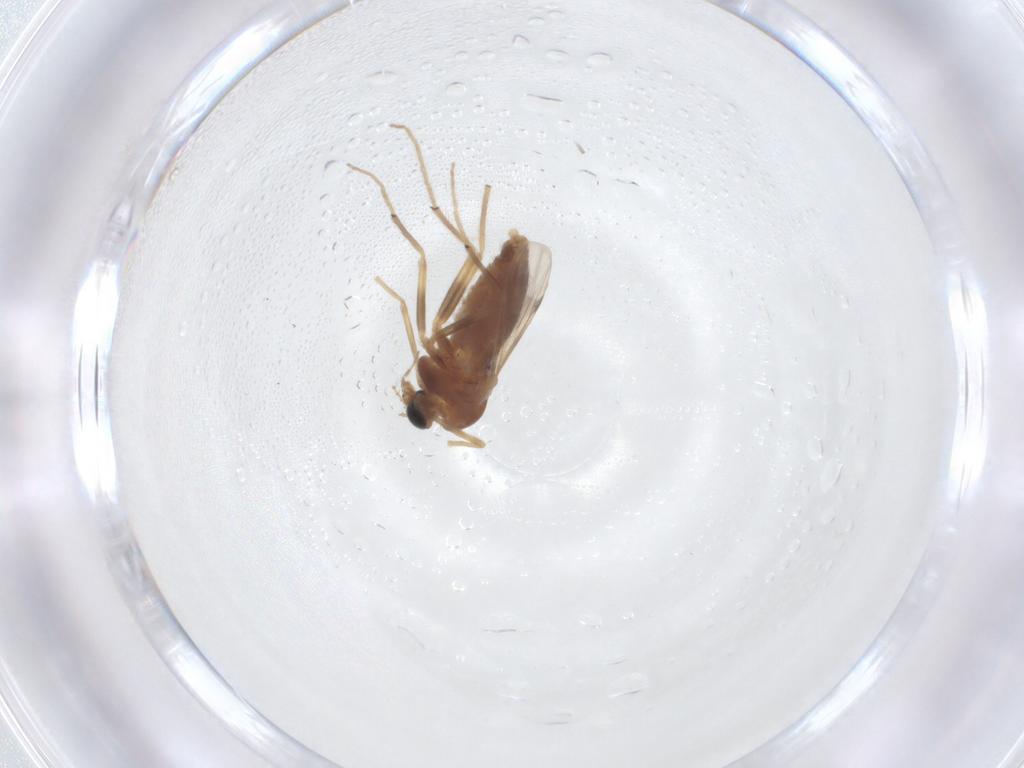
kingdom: Animalia
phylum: Arthropoda
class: Insecta
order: Diptera
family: Chironomidae
